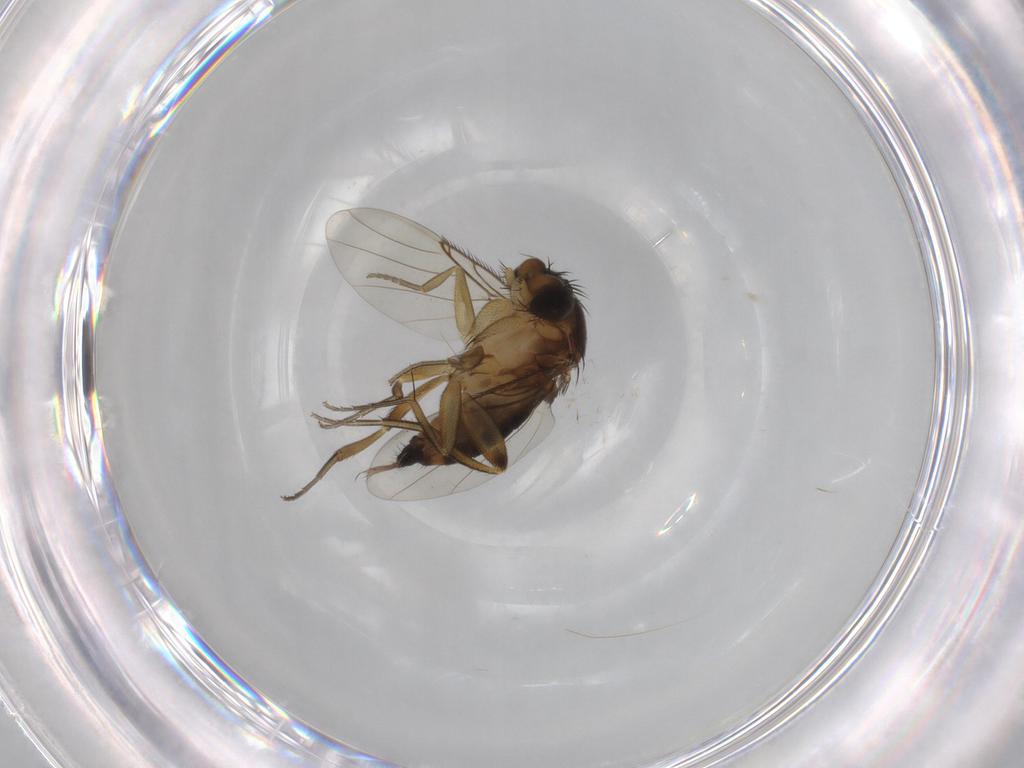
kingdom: Animalia
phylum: Arthropoda
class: Insecta
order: Diptera
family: Phoridae
